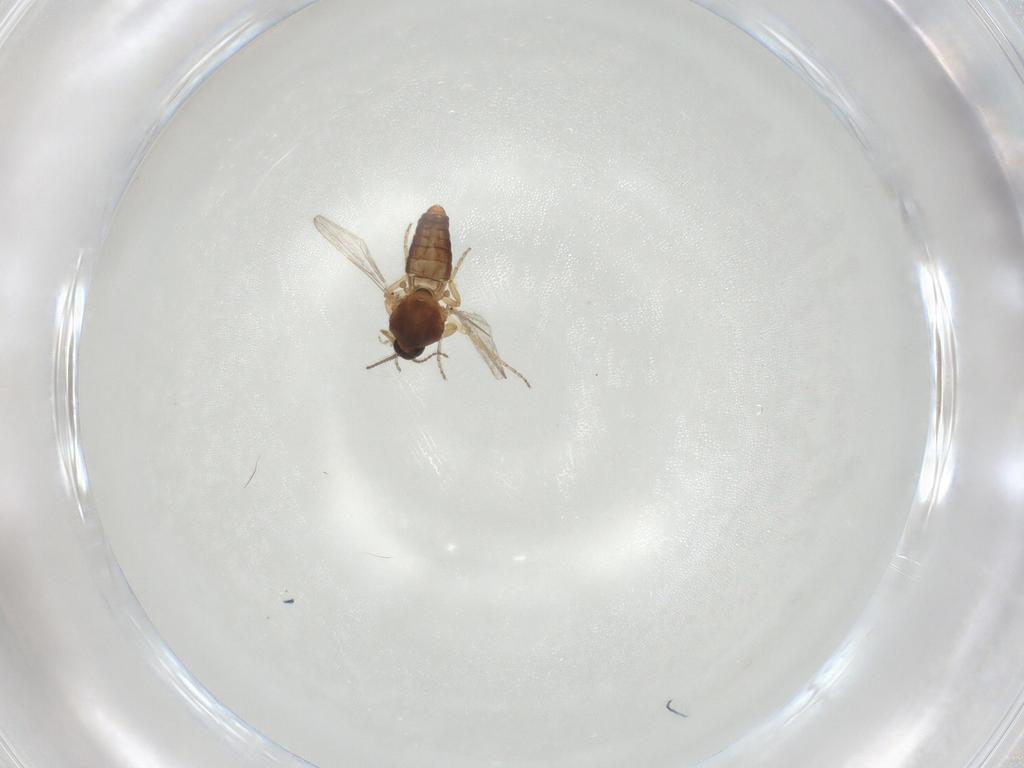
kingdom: Animalia
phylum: Arthropoda
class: Insecta
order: Diptera
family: Ceratopogonidae
